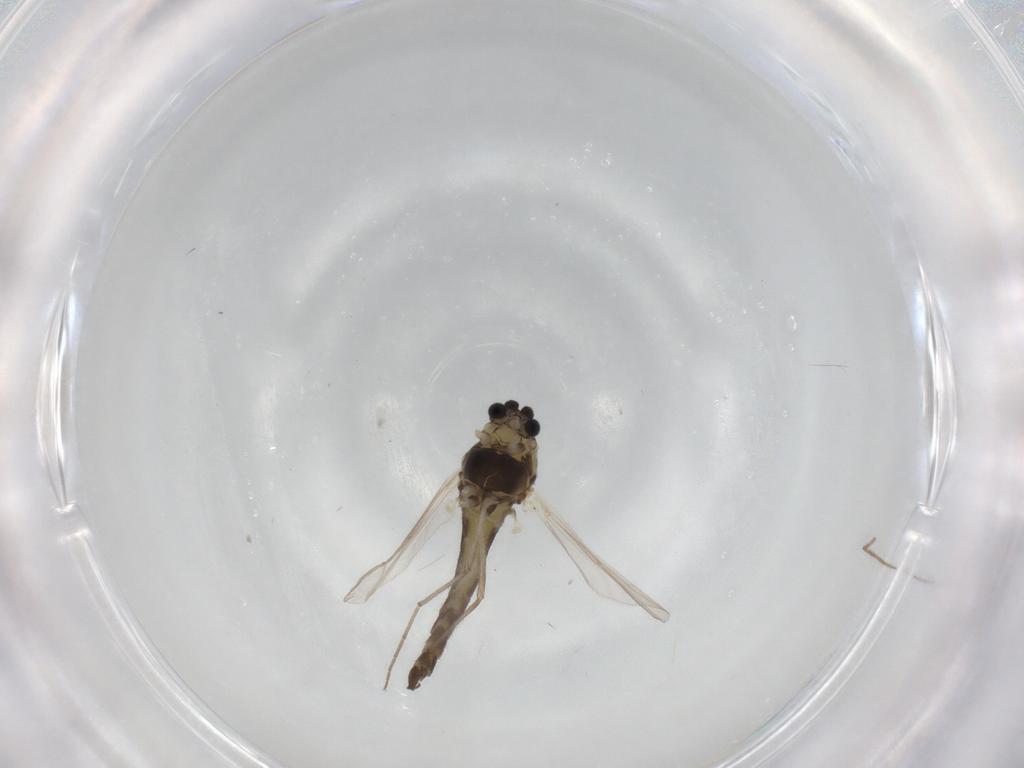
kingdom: Animalia
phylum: Arthropoda
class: Insecta
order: Diptera
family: Chironomidae
